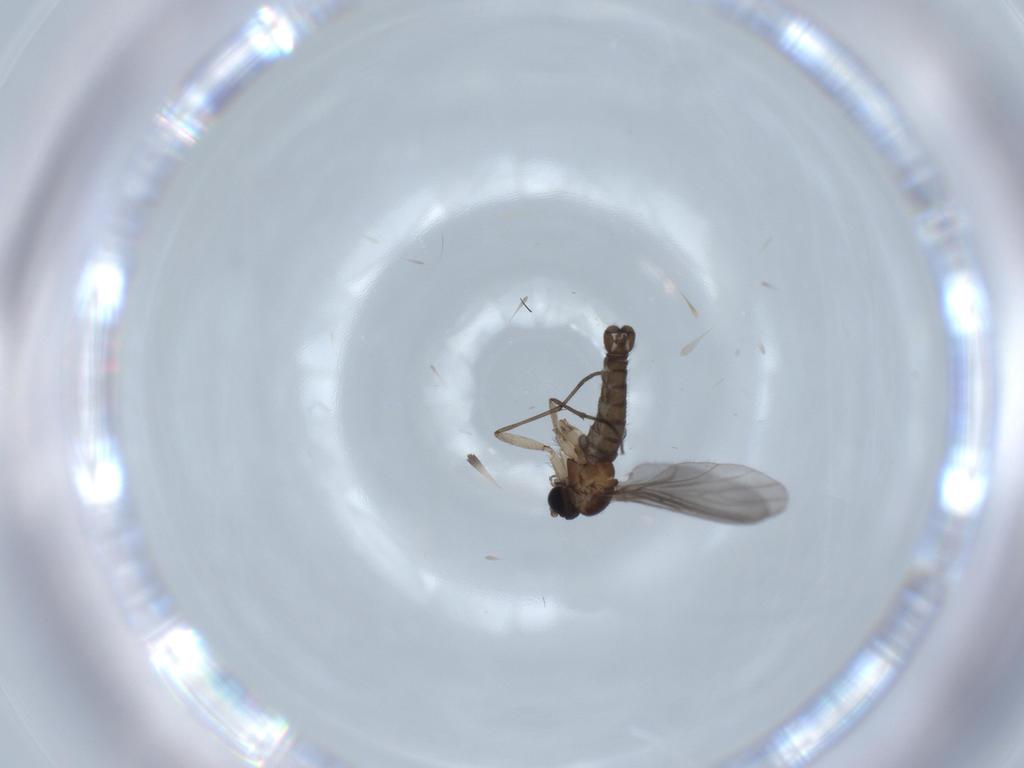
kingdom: Animalia
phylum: Arthropoda
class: Insecta
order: Diptera
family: Sciaridae
